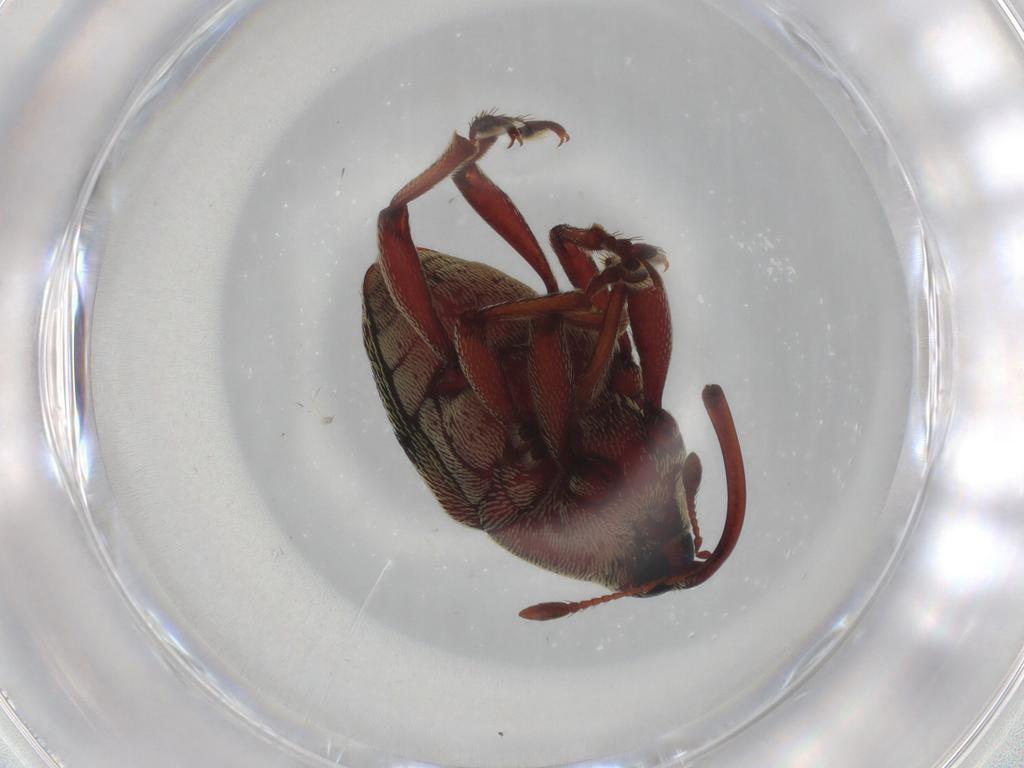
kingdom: Animalia
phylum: Arthropoda
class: Insecta
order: Coleoptera
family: Curculionidae
